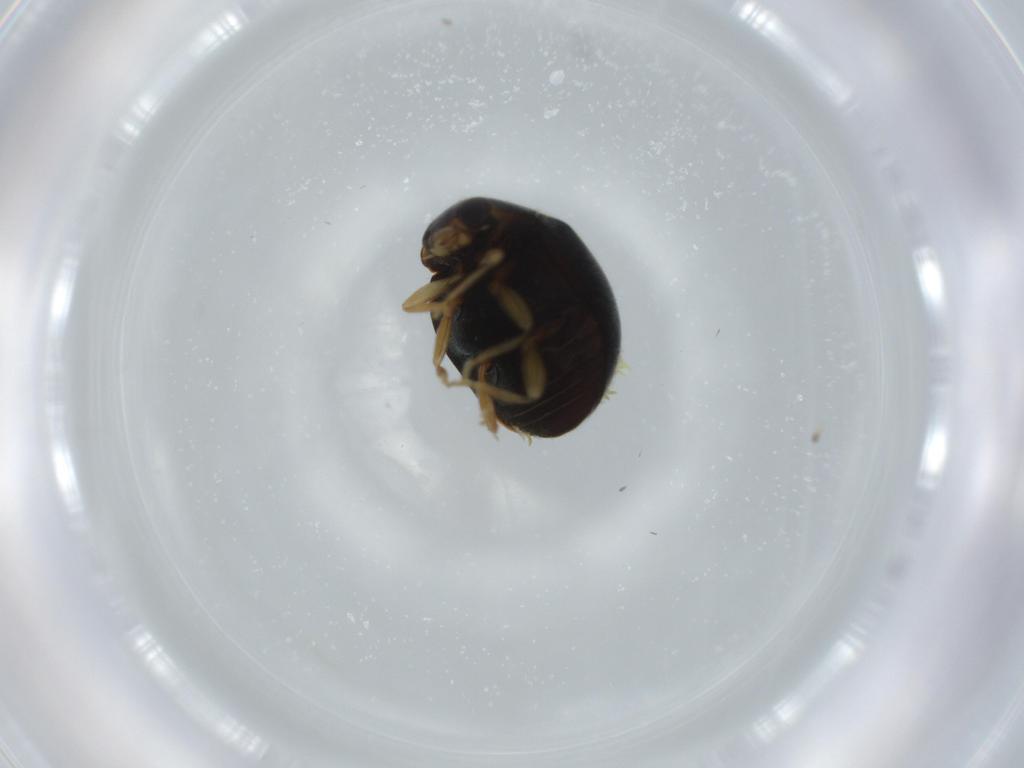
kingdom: Animalia
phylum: Arthropoda
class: Insecta
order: Coleoptera
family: Coccinellidae
